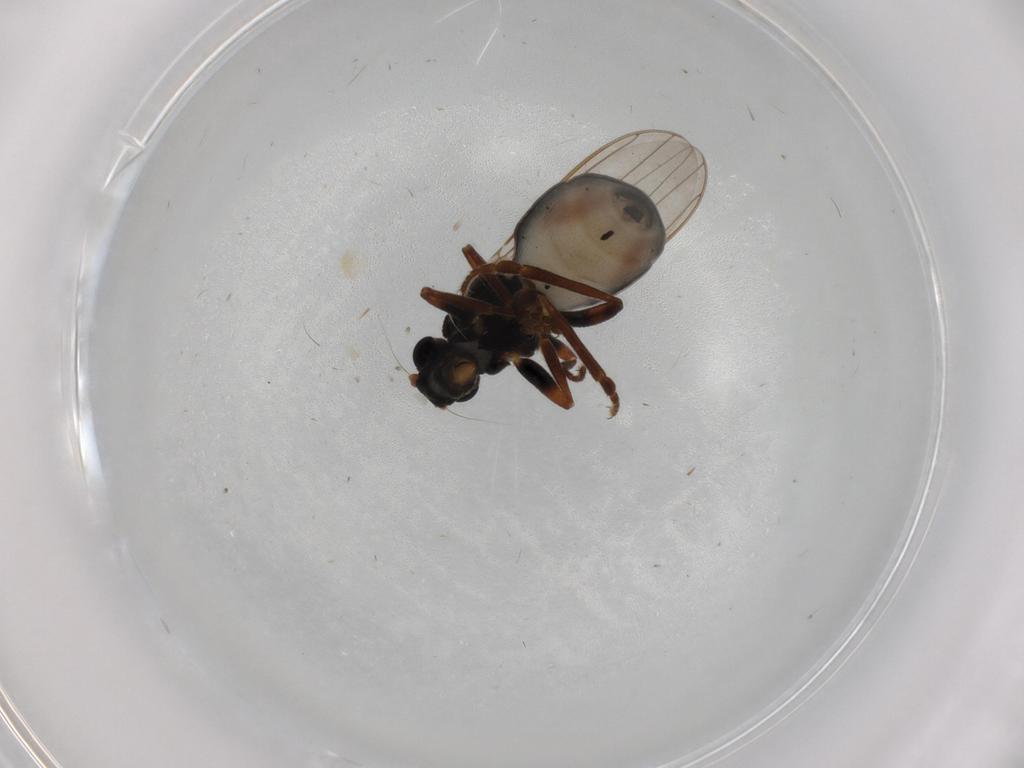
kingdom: Animalia
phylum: Arthropoda
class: Insecta
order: Diptera
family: Sphaeroceridae
